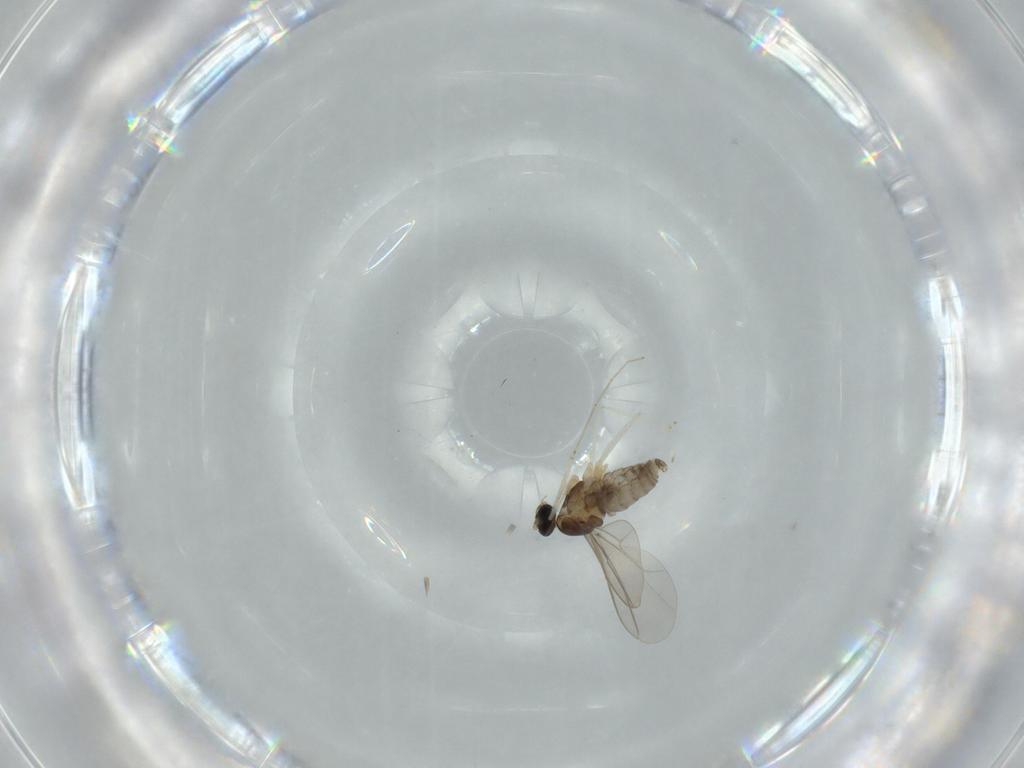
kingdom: Animalia
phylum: Arthropoda
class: Insecta
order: Diptera
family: Cecidomyiidae
